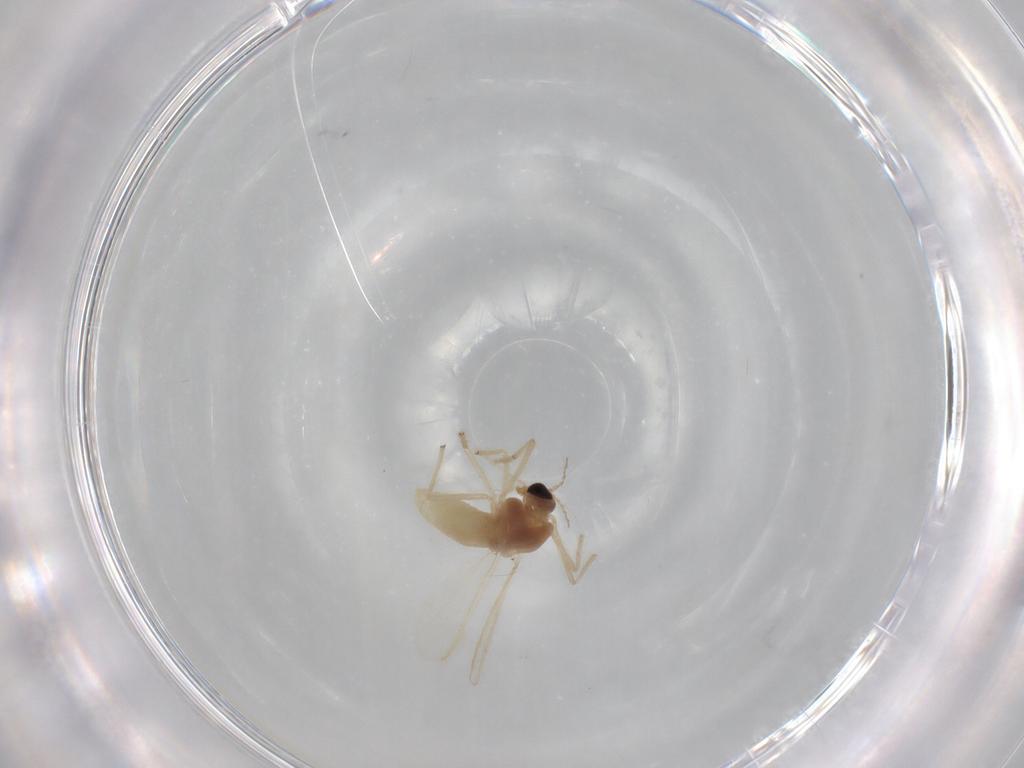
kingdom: Animalia
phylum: Arthropoda
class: Insecta
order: Diptera
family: Chironomidae
